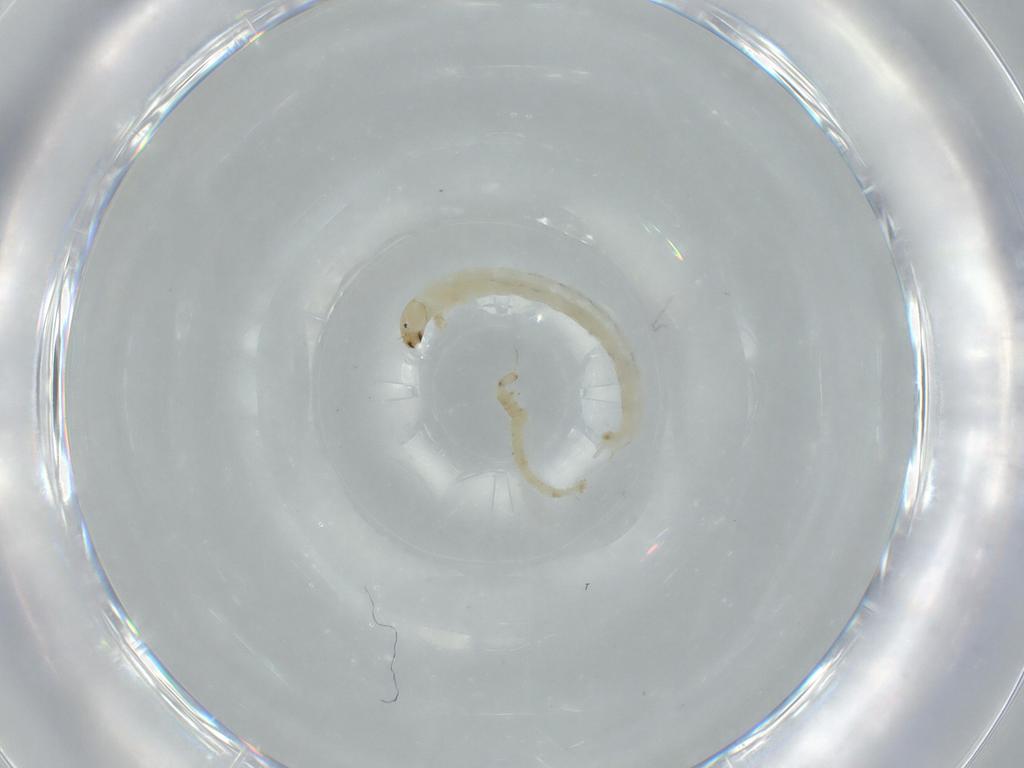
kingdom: Animalia
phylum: Arthropoda
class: Insecta
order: Diptera
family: Chironomidae
